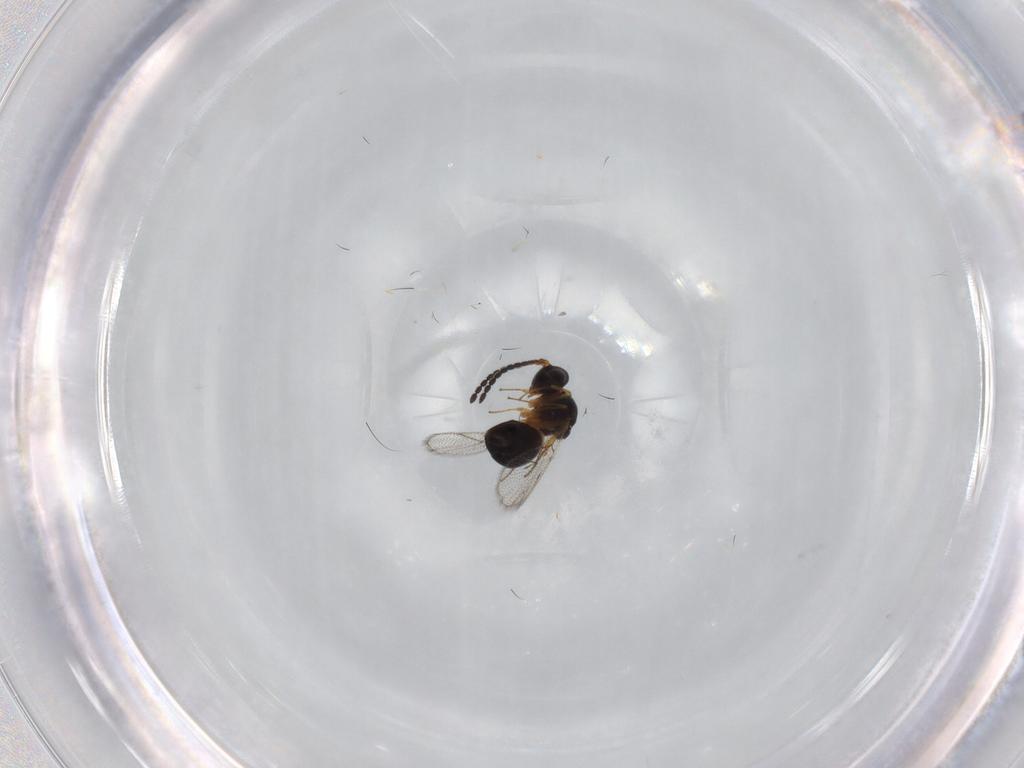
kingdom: Animalia
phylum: Arthropoda
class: Insecta
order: Hymenoptera
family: Figitidae
